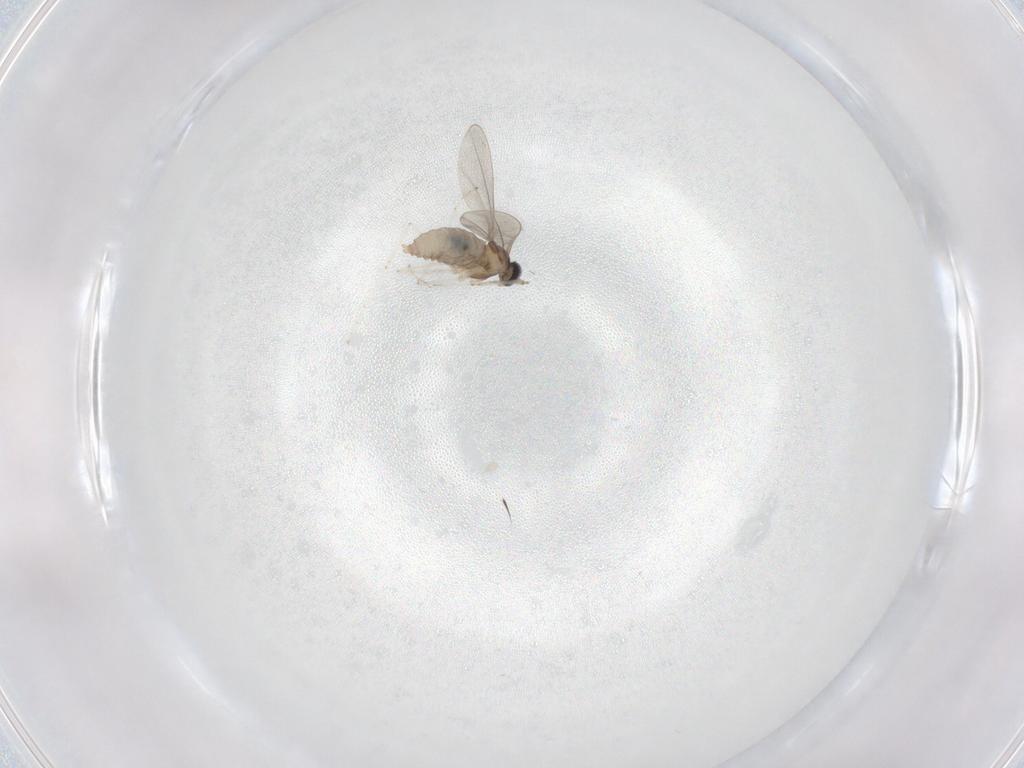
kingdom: Animalia
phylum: Arthropoda
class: Insecta
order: Diptera
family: Cecidomyiidae
